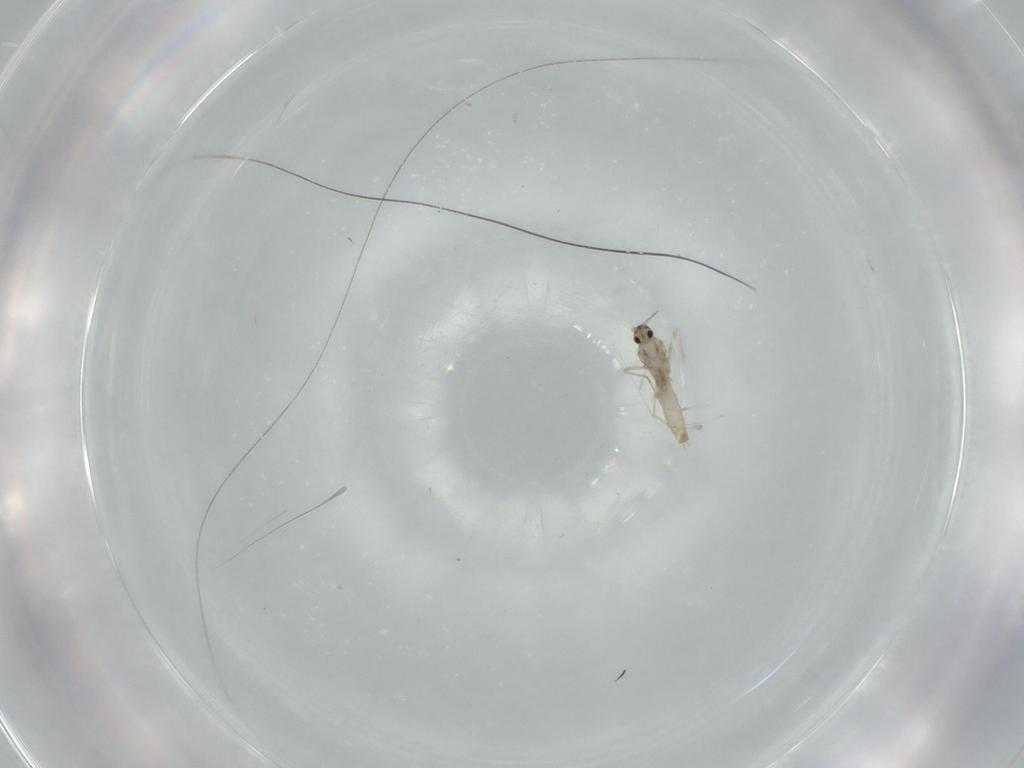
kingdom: Animalia
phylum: Arthropoda
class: Insecta
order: Diptera
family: Cecidomyiidae
